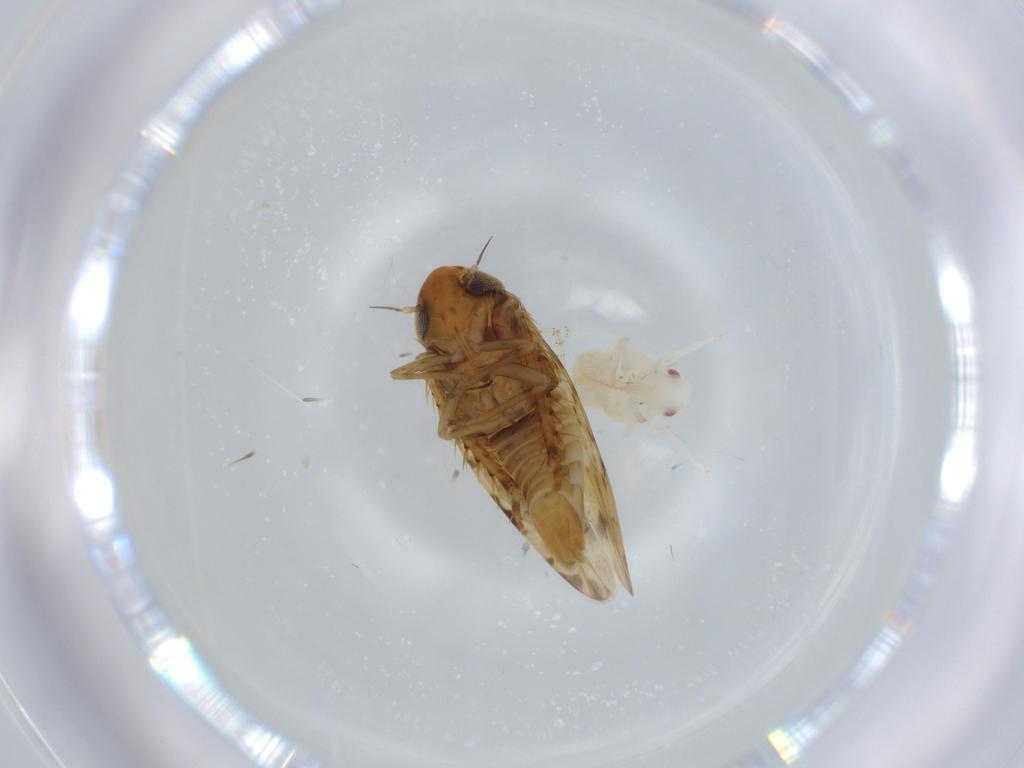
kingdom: Animalia
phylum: Arthropoda
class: Insecta
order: Hemiptera
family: Cicadellidae
